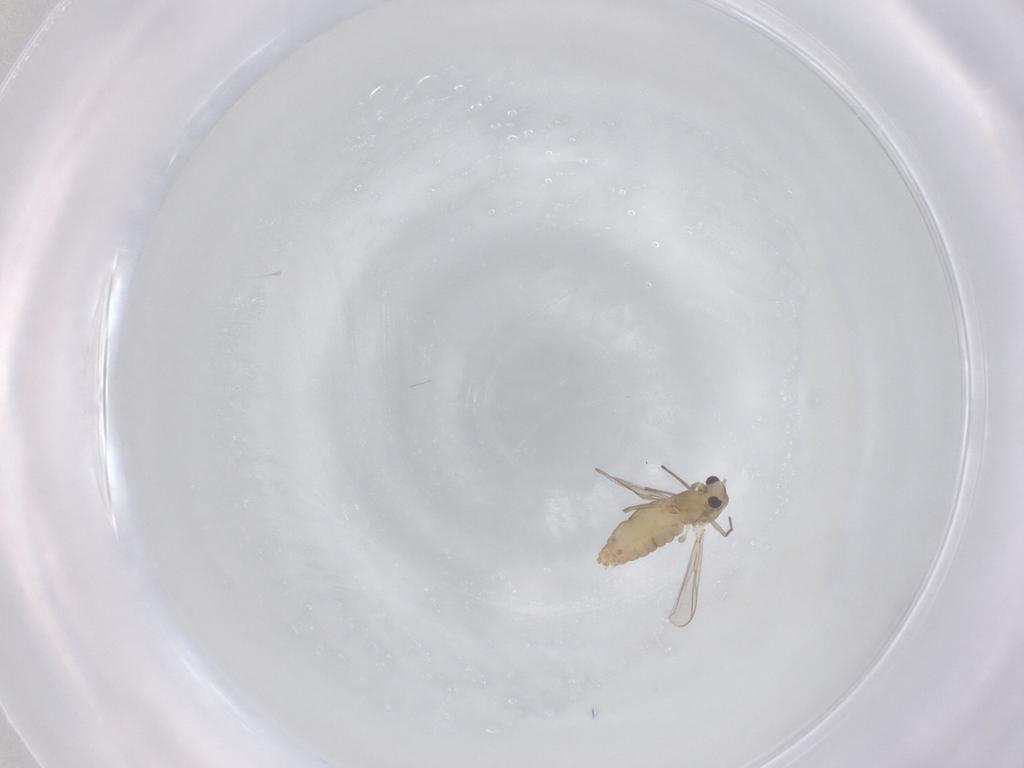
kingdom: Animalia
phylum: Arthropoda
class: Insecta
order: Diptera
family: Chironomidae
